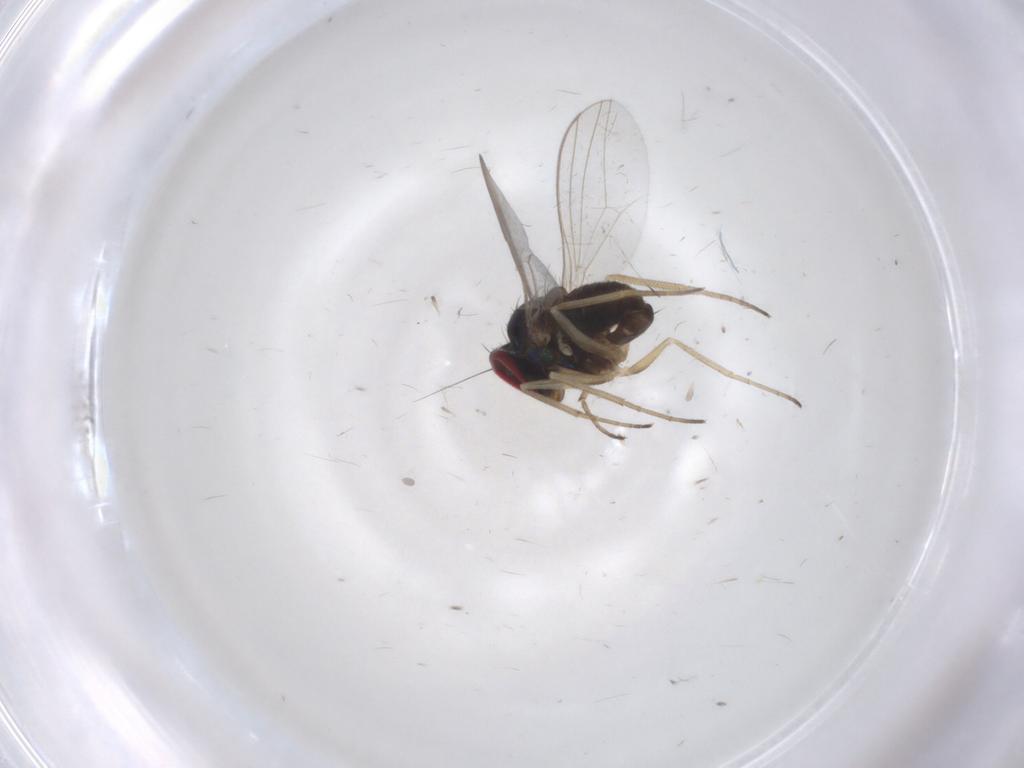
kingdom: Animalia
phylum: Arthropoda
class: Insecta
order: Diptera
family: Dolichopodidae
